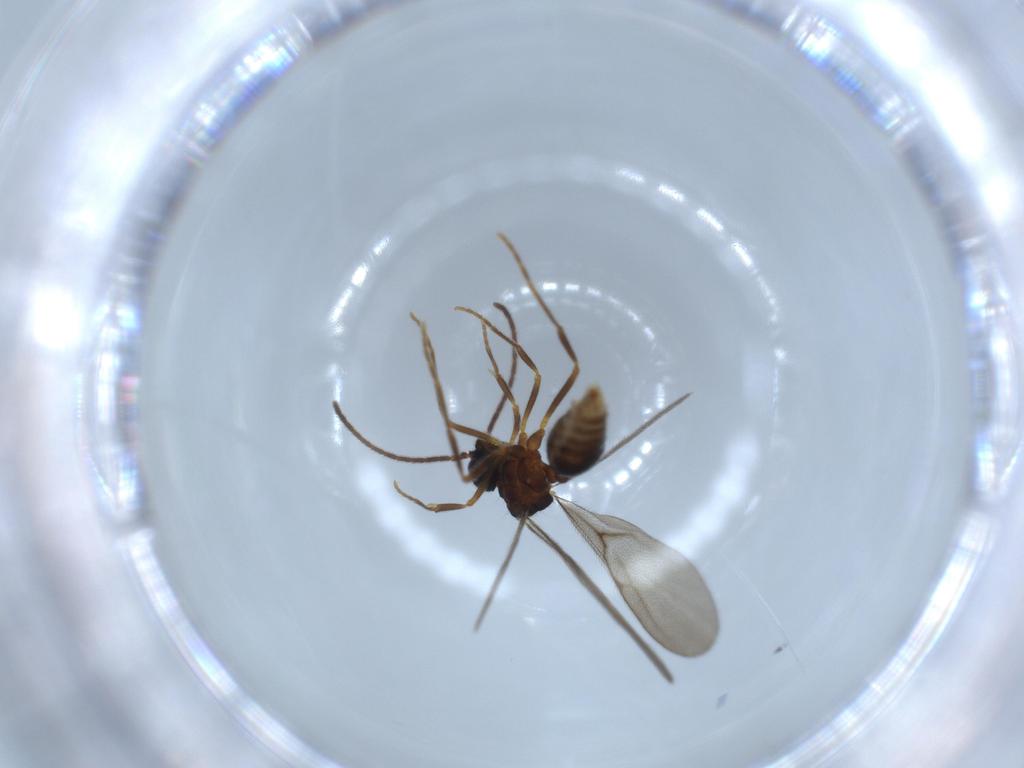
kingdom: Animalia
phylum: Arthropoda
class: Insecta
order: Hymenoptera
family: Formicidae
